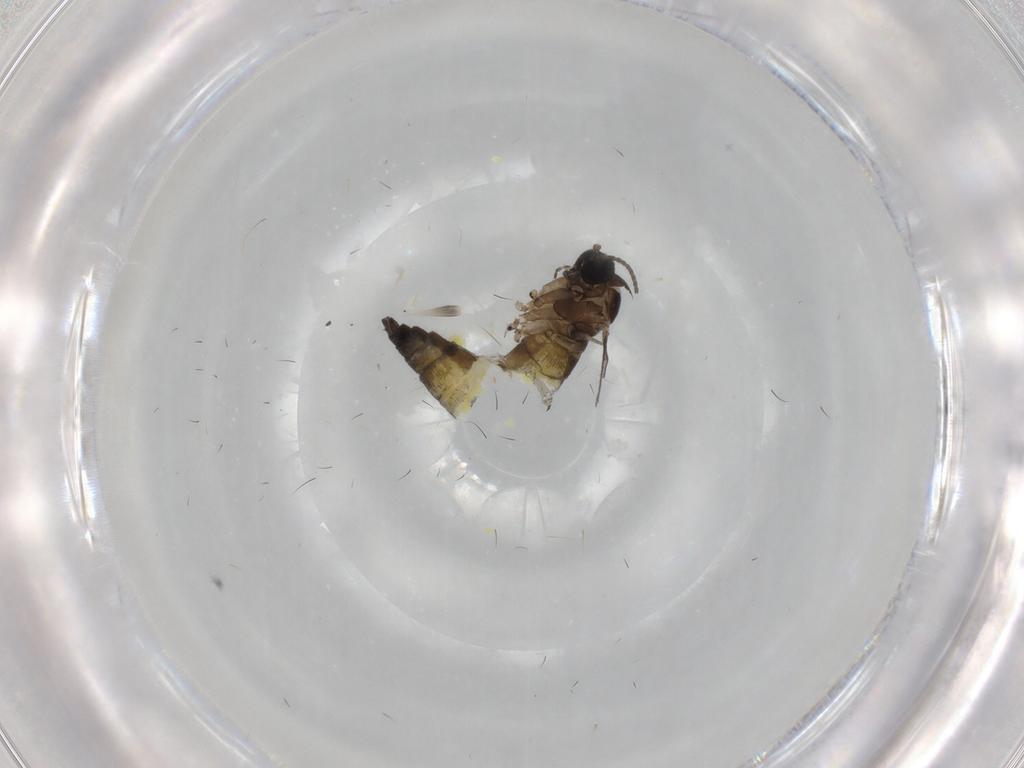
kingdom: Animalia
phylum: Arthropoda
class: Insecta
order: Diptera
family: Sciaridae
